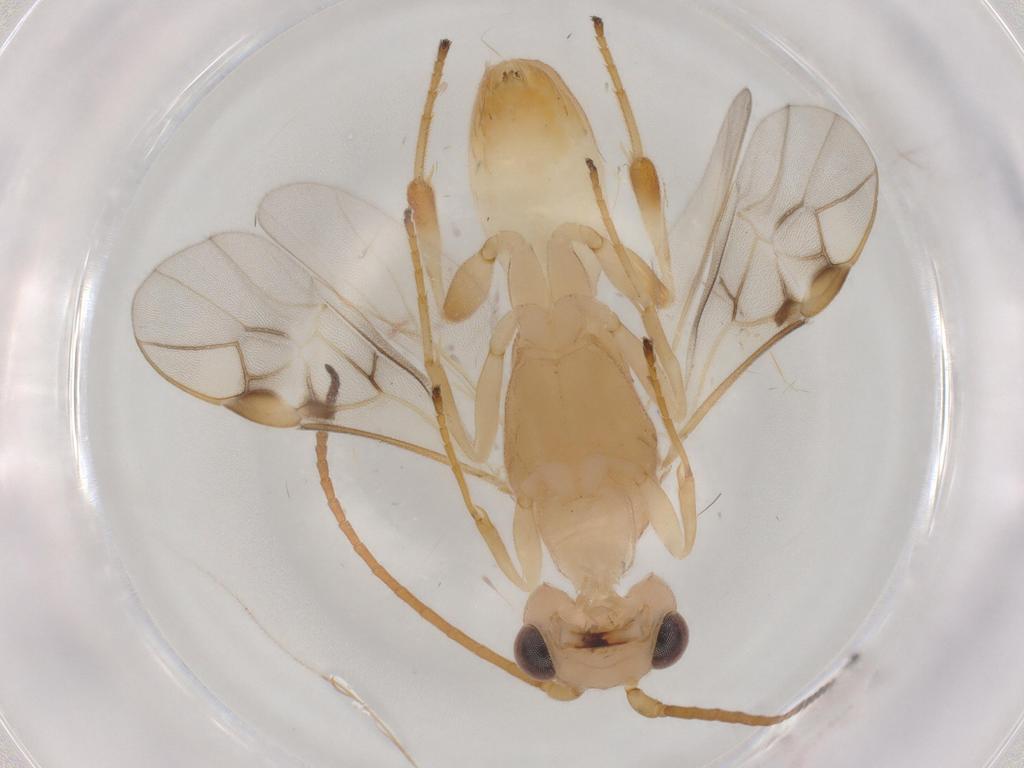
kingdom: Animalia
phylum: Arthropoda
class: Insecta
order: Hymenoptera
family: Braconidae
